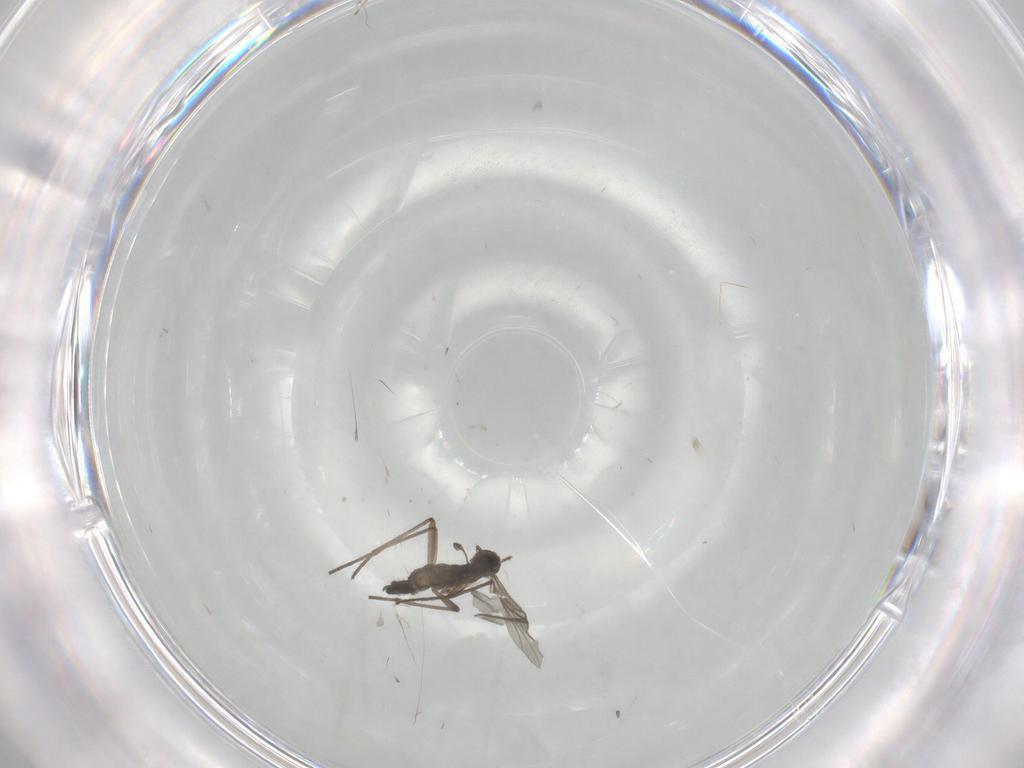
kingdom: Animalia
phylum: Arthropoda
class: Insecta
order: Diptera
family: Sciaridae
